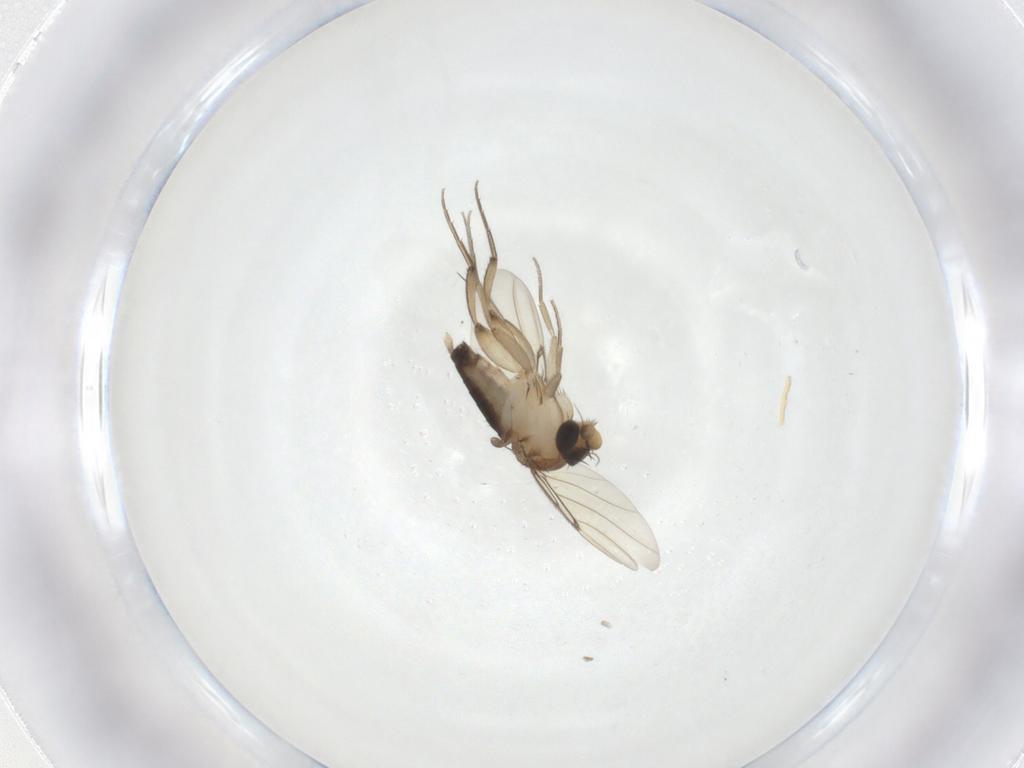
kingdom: Animalia
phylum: Arthropoda
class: Insecta
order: Diptera
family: Phoridae
